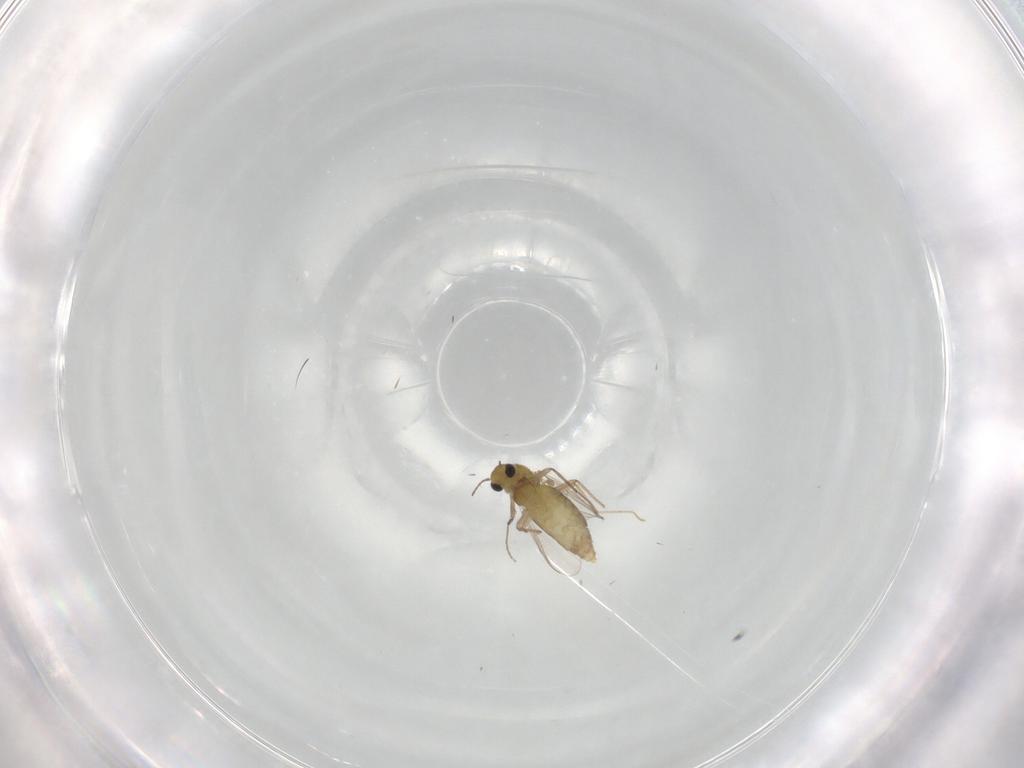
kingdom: Animalia
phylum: Arthropoda
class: Insecta
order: Diptera
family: Chironomidae
